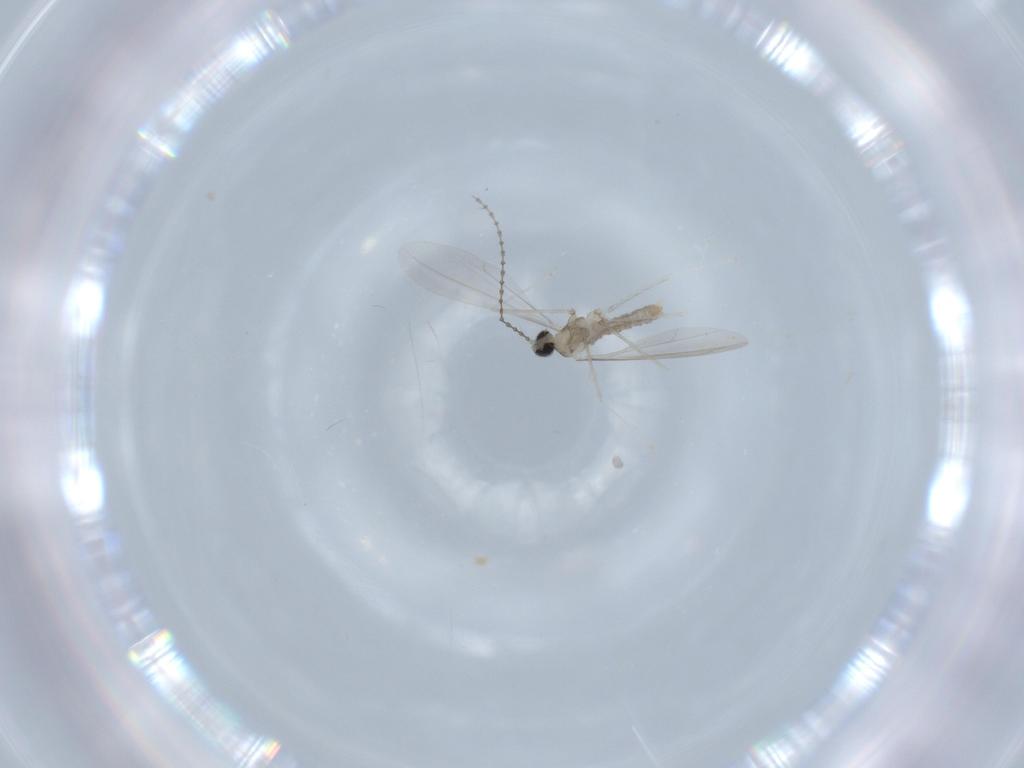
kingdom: Animalia
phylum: Arthropoda
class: Insecta
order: Diptera
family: Cecidomyiidae
